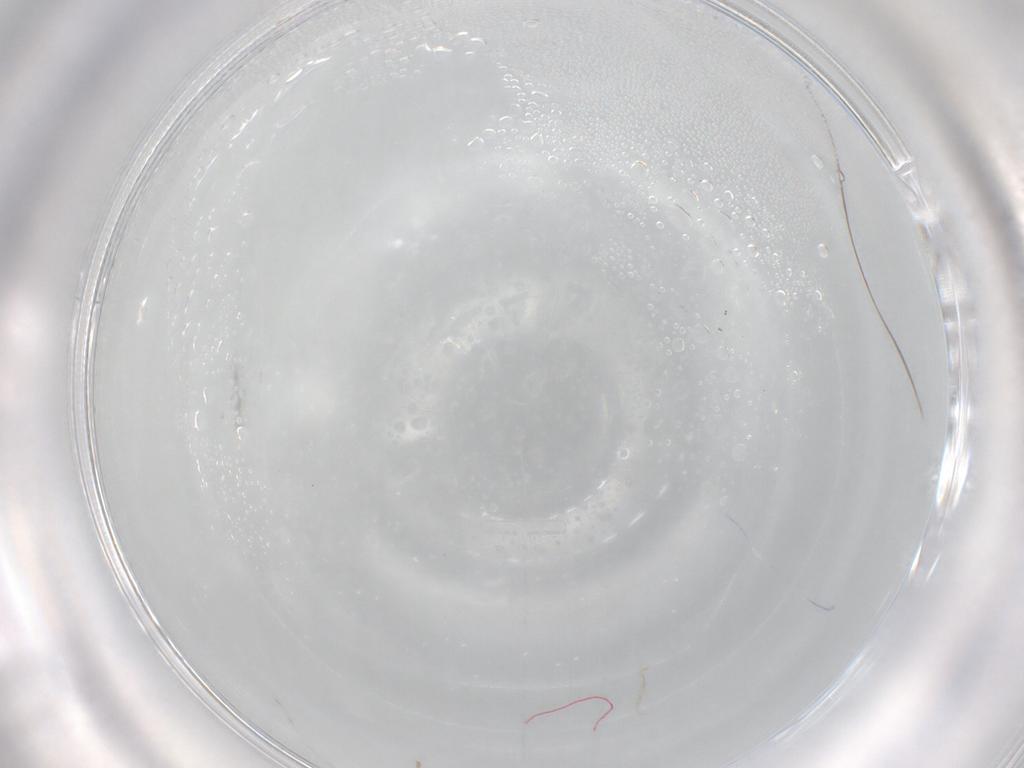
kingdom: Animalia
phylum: Arthropoda
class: Insecta
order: Diptera
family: Cecidomyiidae
